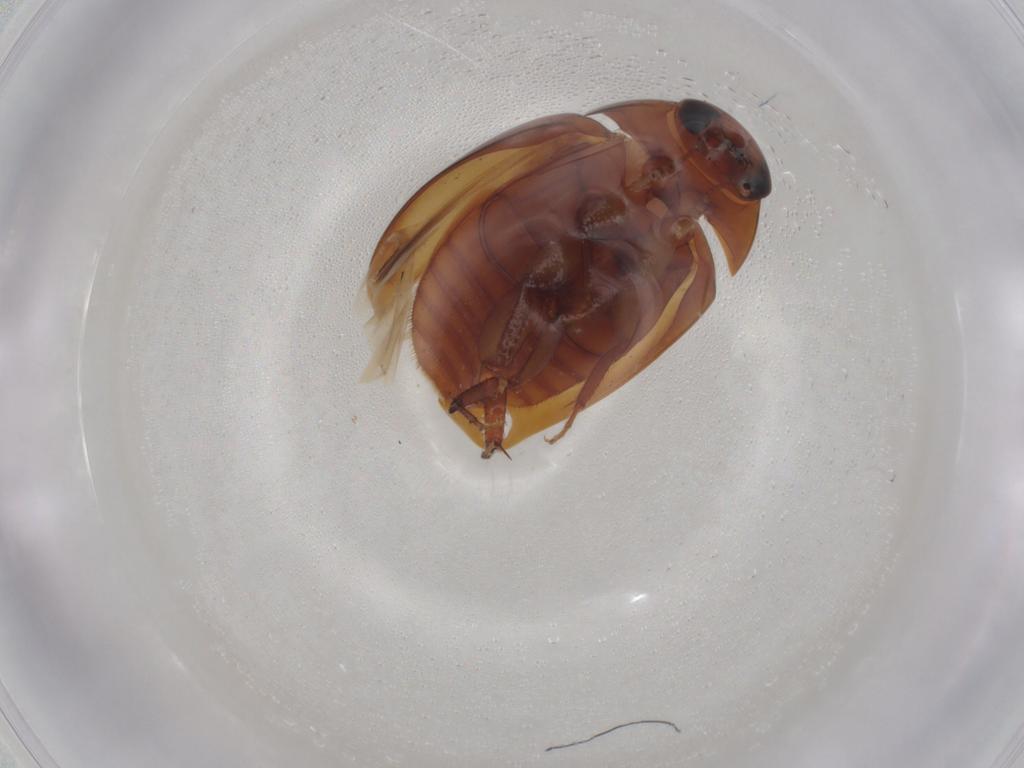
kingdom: Animalia
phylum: Arthropoda
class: Insecta
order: Coleoptera
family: Phalacridae
